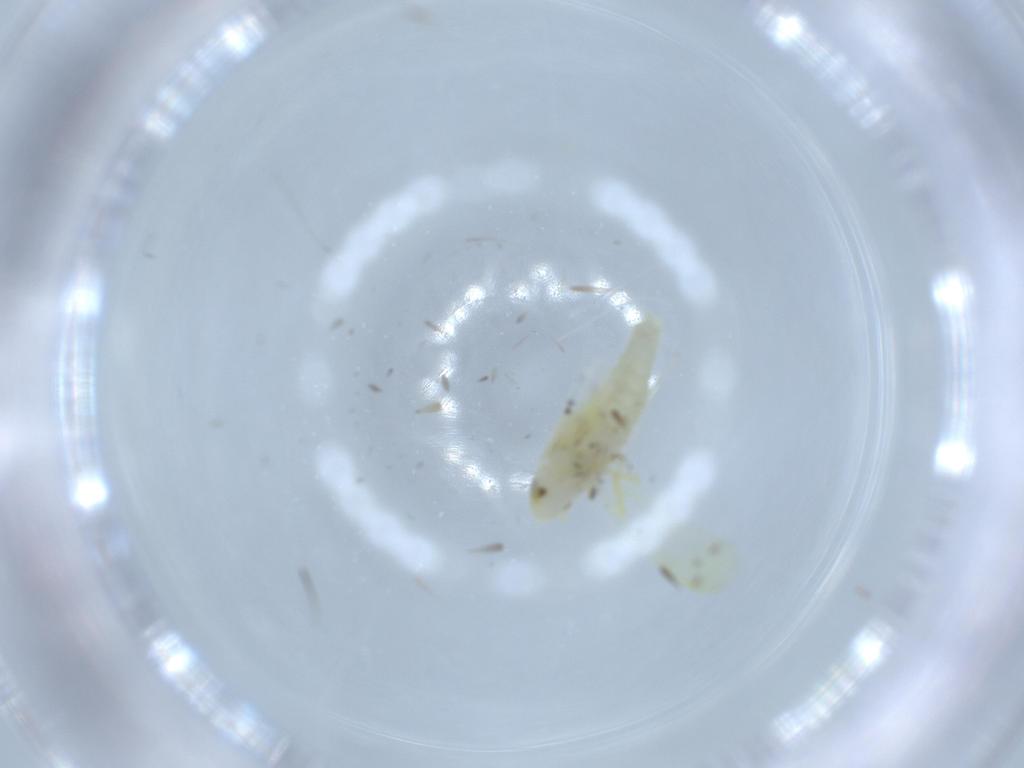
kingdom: Animalia
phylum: Arthropoda
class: Insecta
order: Hemiptera
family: Cicadellidae
